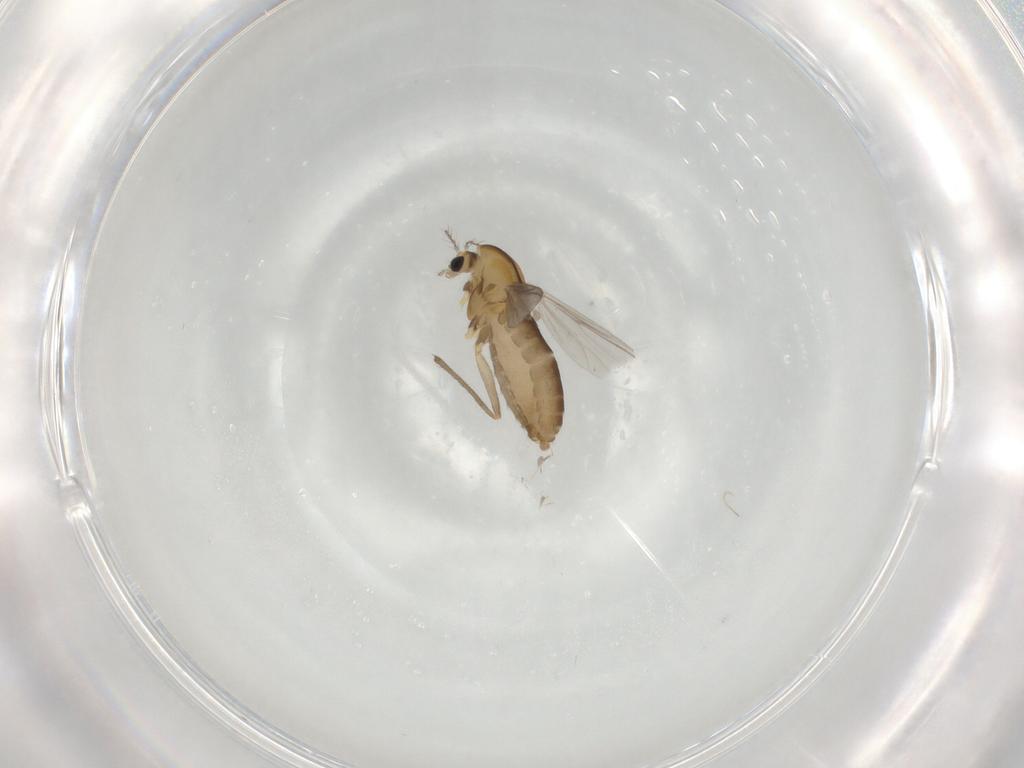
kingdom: Animalia
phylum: Arthropoda
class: Insecta
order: Diptera
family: Chironomidae
